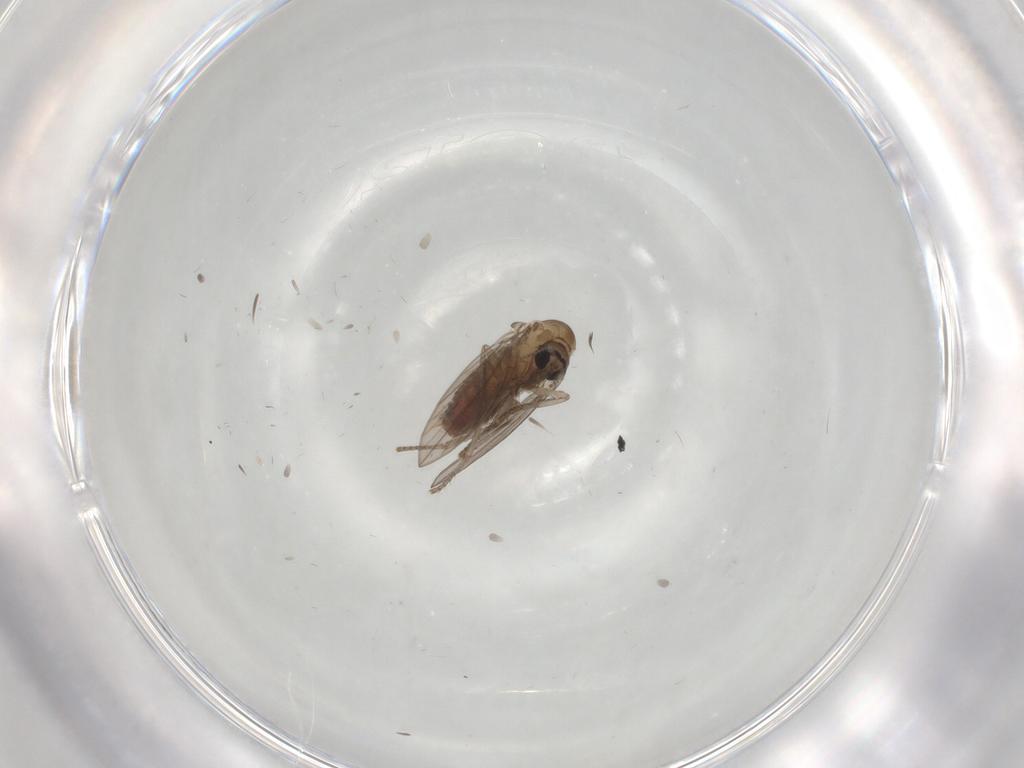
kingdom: Animalia
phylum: Arthropoda
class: Insecta
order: Diptera
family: Psychodidae
